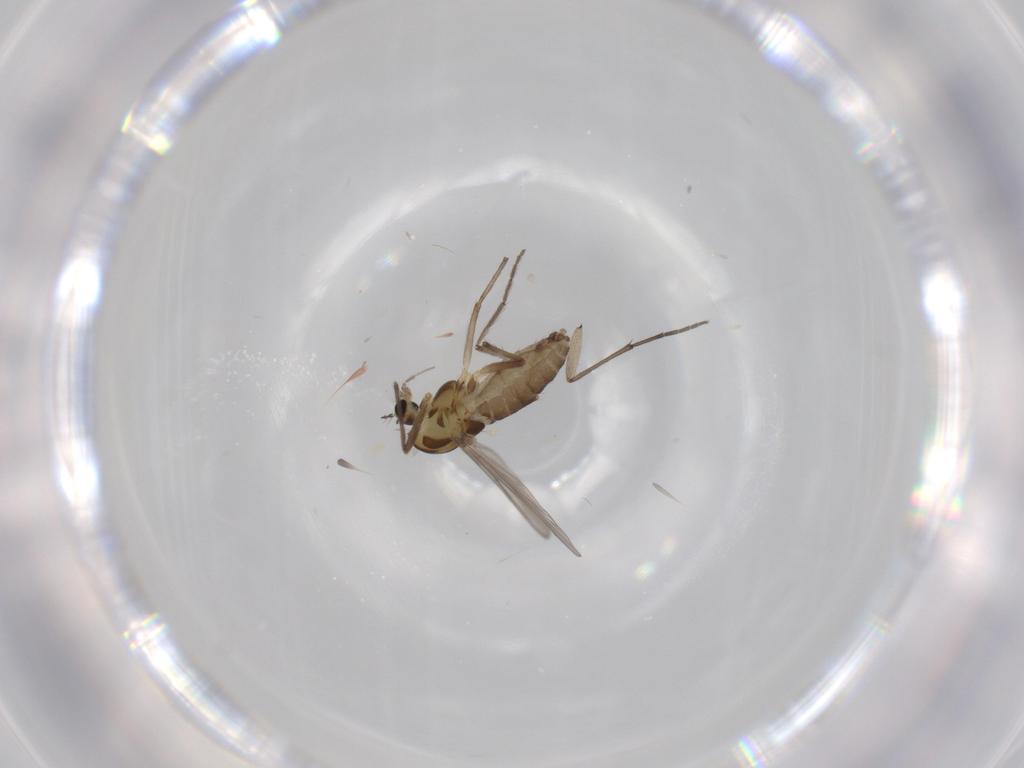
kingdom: Animalia
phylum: Arthropoda
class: Insecta
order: Diptera
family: Chironomidae
